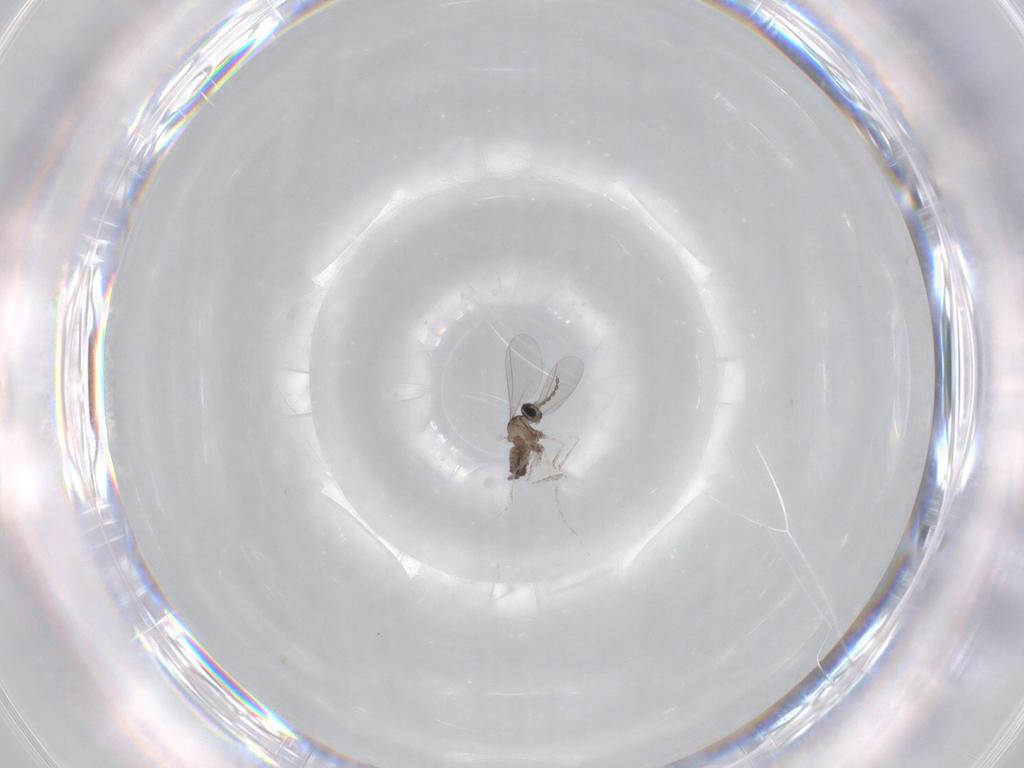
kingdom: Animalia
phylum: Arthropoda
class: Insecta
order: Diptera
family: Cecidomyiidae
